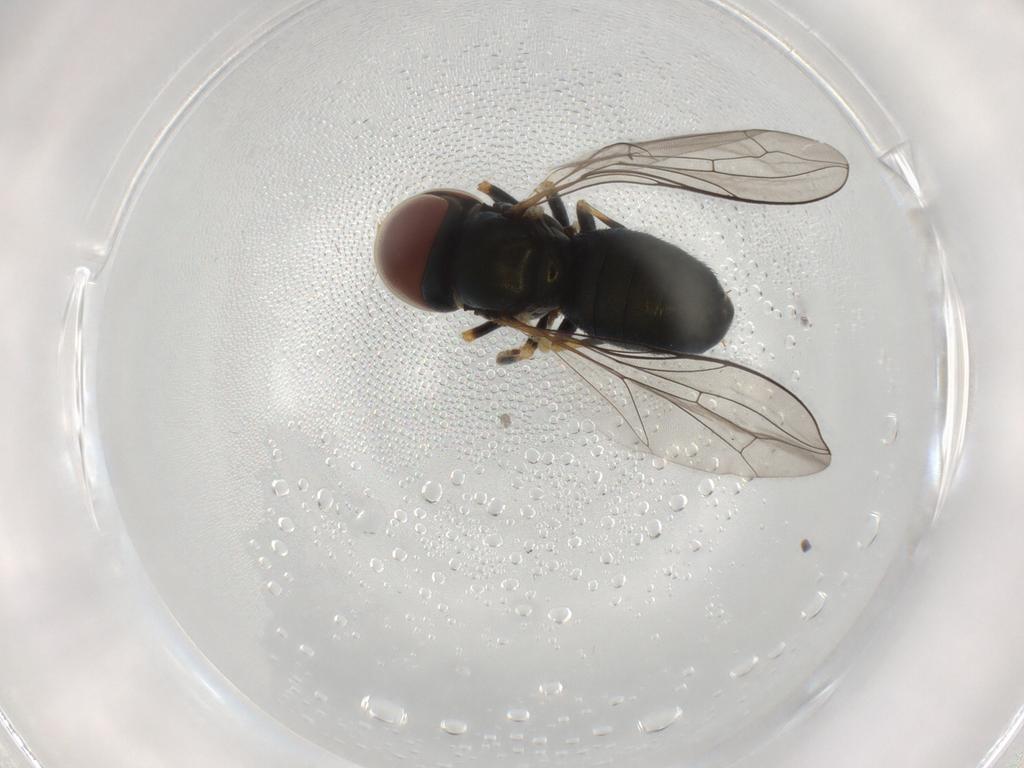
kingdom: Animalia
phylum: Arthropoda
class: Insecta
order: Diptera
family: Pipunculidae
